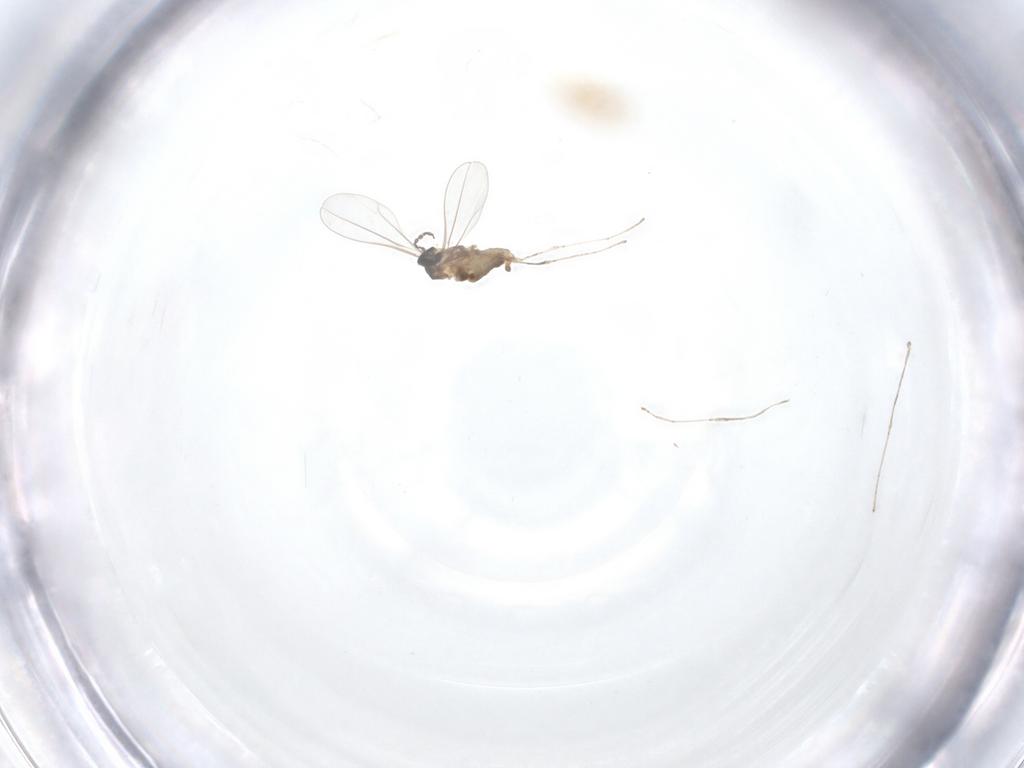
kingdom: Animalia
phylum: Arthropoda
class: Insecta
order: Diptera
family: Cecidomyiidae
